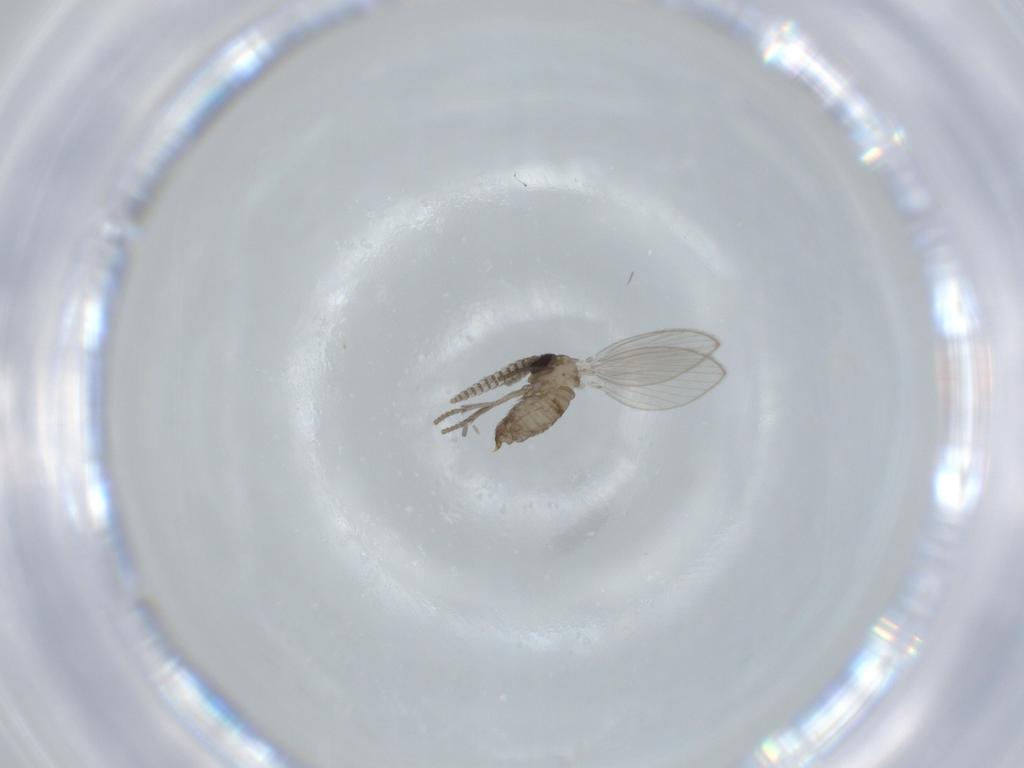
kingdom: Animalia
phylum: Arthropoda
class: Insecta
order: Diptera
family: Psychodidae
